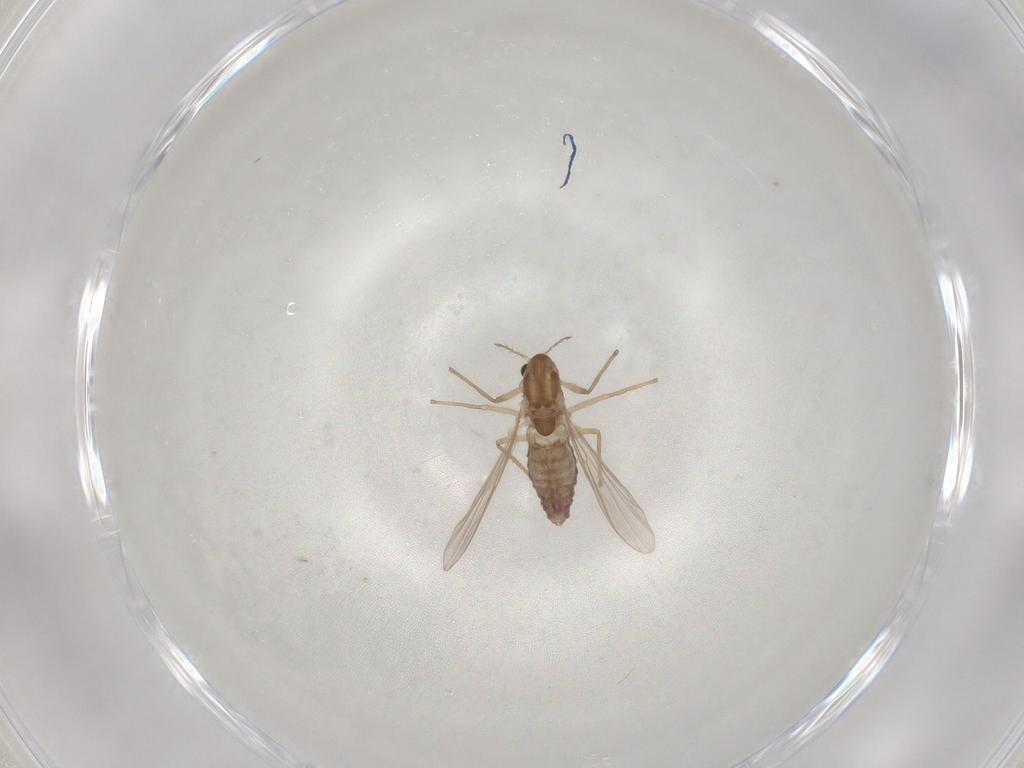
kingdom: Animalia
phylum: Arthropoda
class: Insecta
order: Diptera
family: Chironomidae
